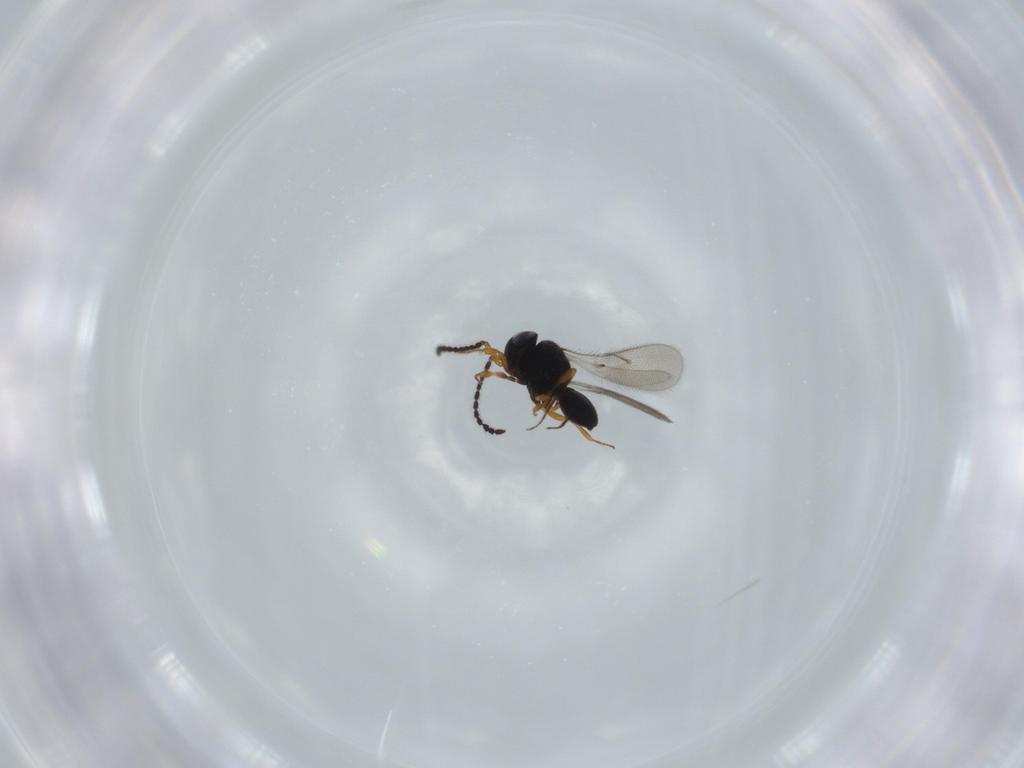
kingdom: Animalia
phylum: Arthropoda
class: Insecta
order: Hymenoptera
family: Scelionidae
